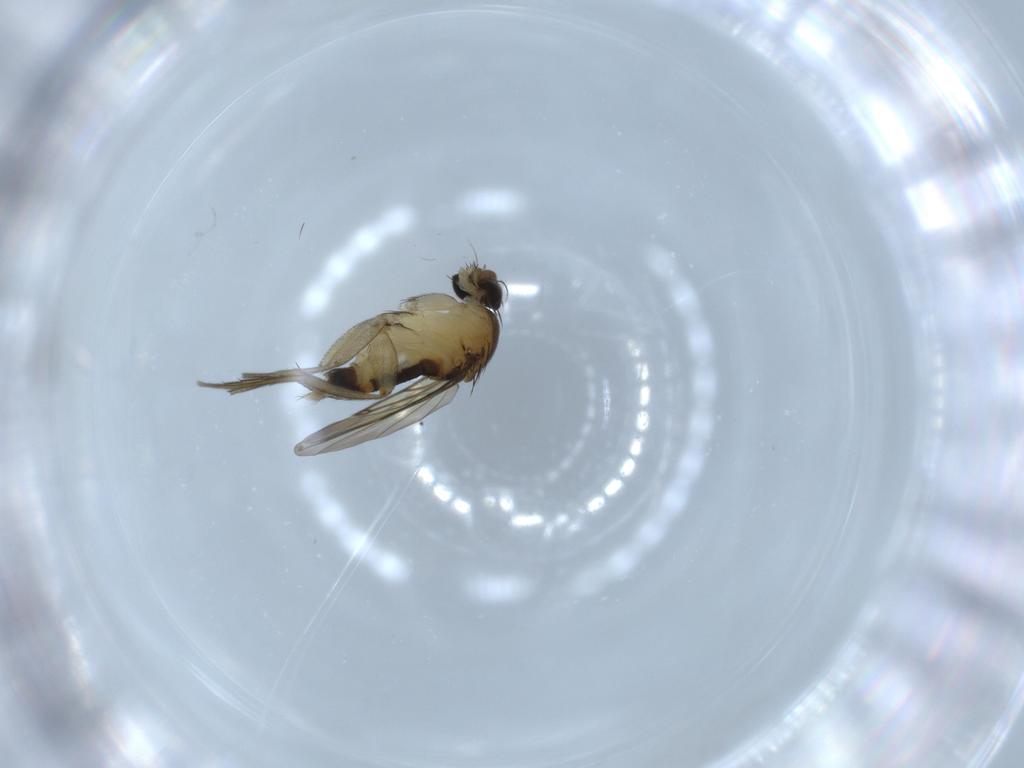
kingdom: Animalia
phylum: Arthropoda
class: Insecta
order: Diptera
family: Phoridae
